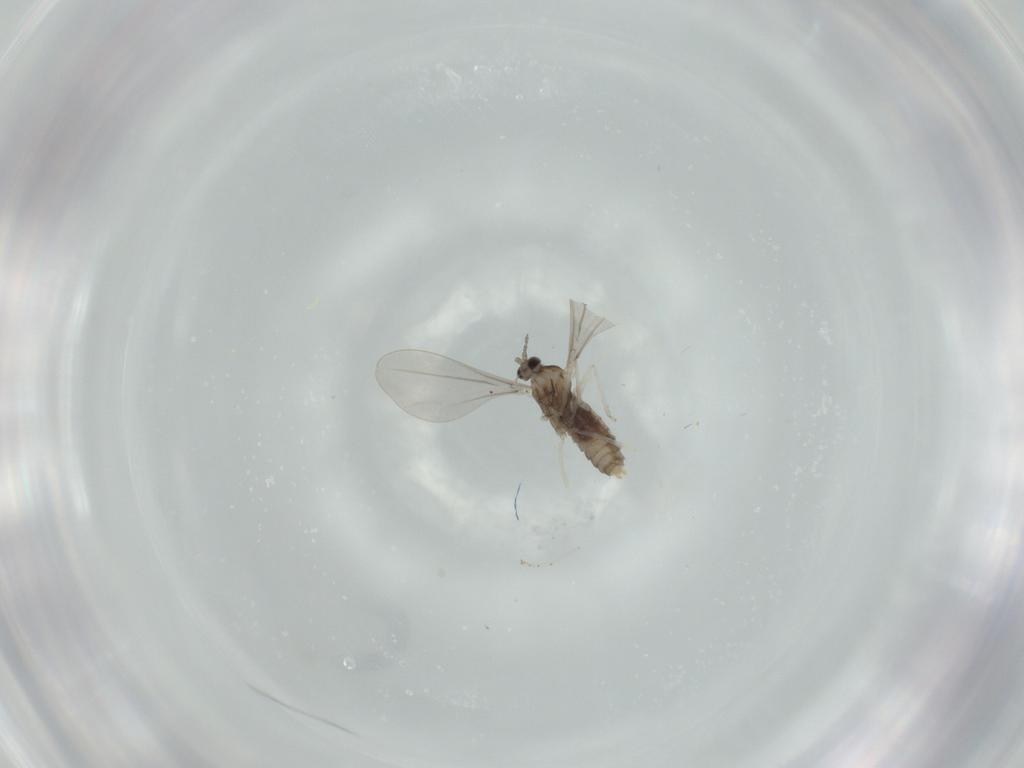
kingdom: Animalia
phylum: Arthropoda
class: Insecta
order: Diptera
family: Cecidomyiidae
